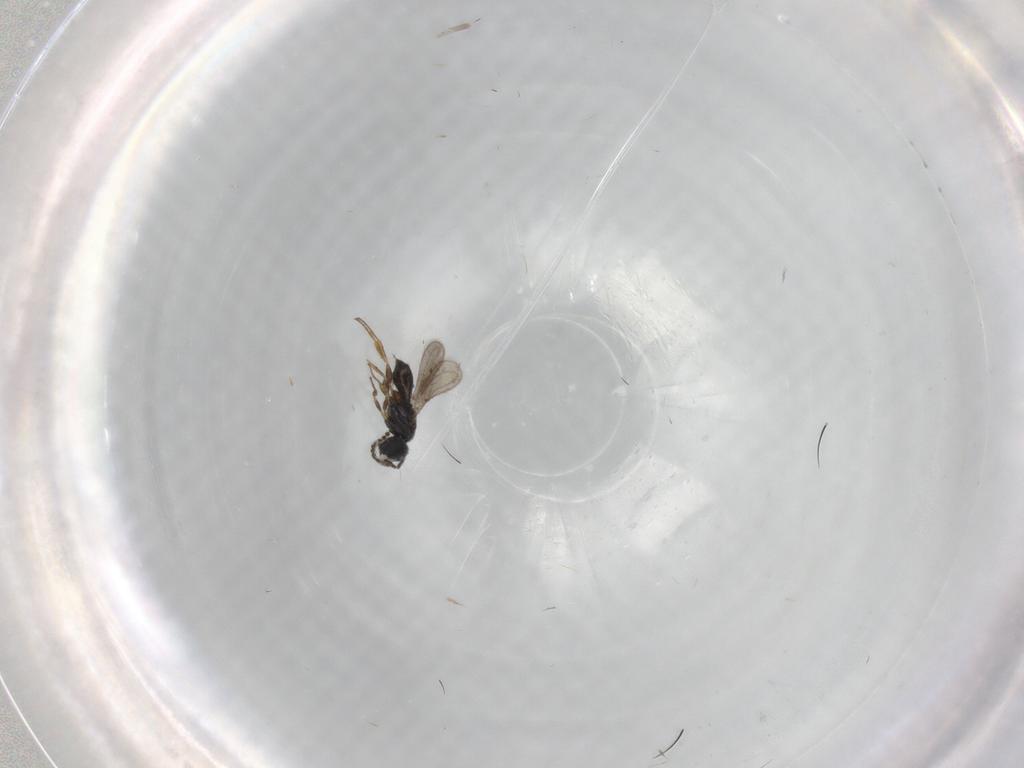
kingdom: Animalia
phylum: Arthropoda
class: Insecta
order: Hymenoptera
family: Scelionidae
